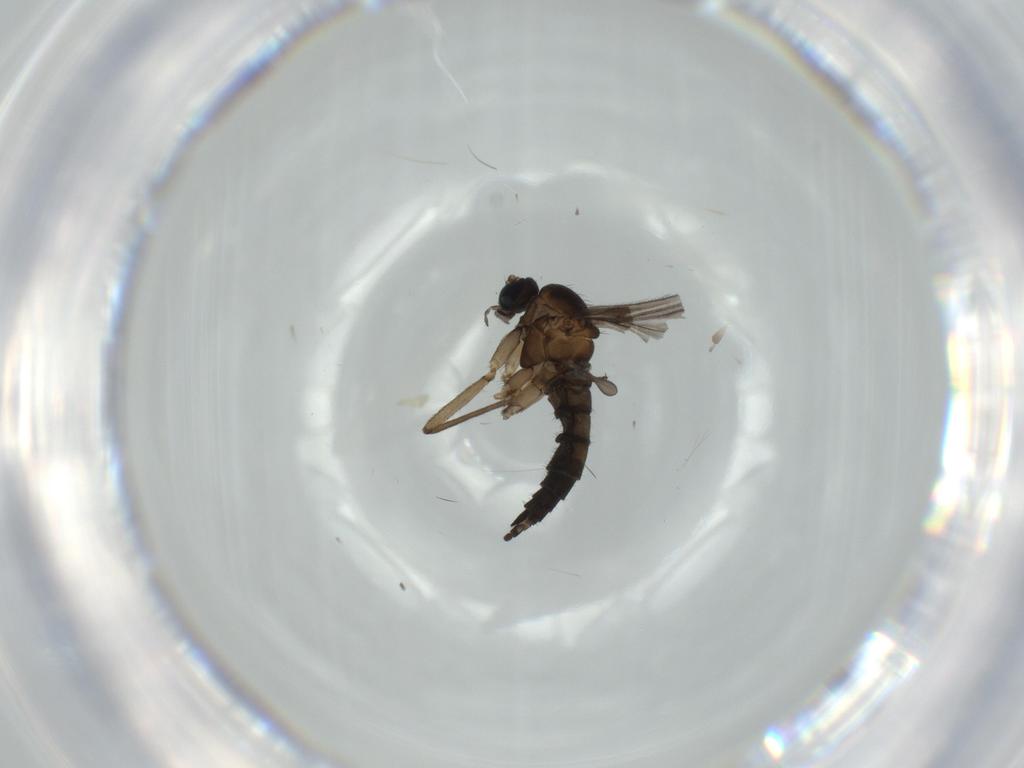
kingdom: Animalia
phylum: Arthropoda
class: Insecta
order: Diptera
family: Sciaridae
